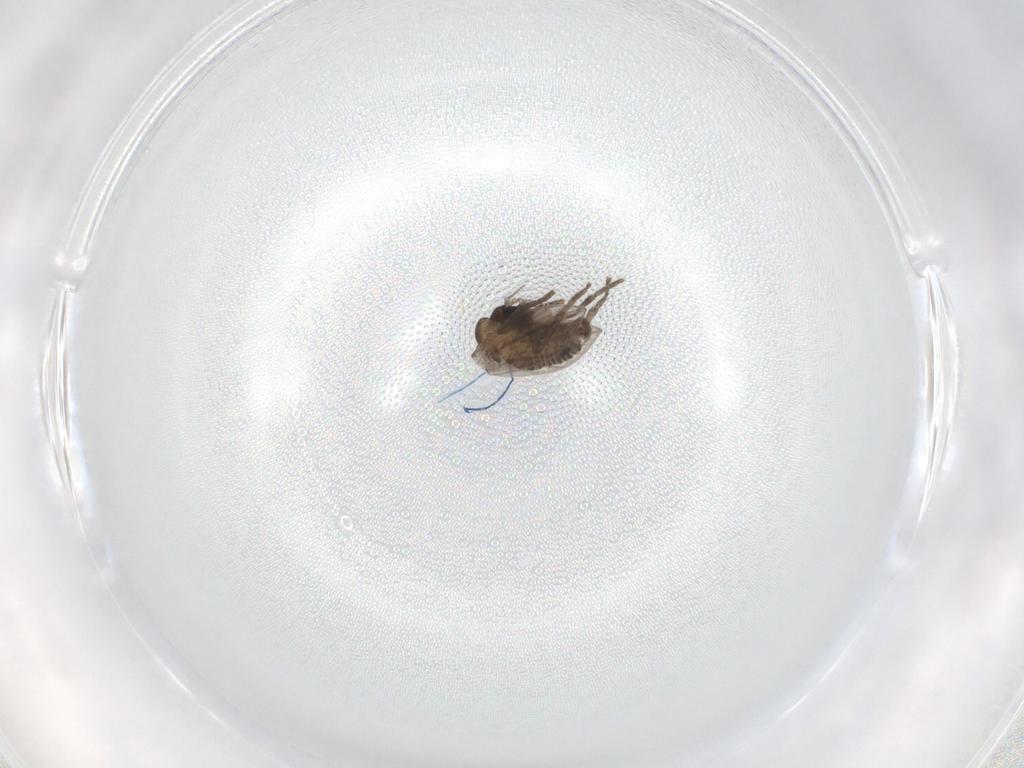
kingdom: Animalia
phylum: Arthropoda
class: Insecta
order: Diptera
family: Psychodidae
